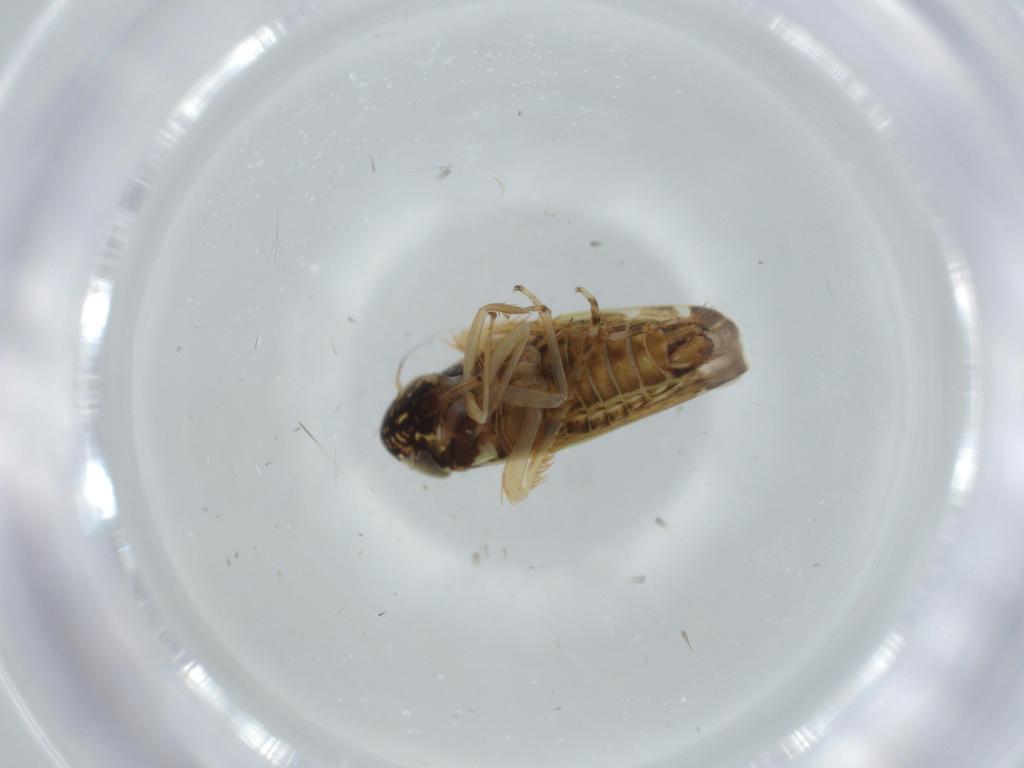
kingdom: Animalia
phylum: Arthropoda
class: Insecta
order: Hemiptera
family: Cicadellidae
